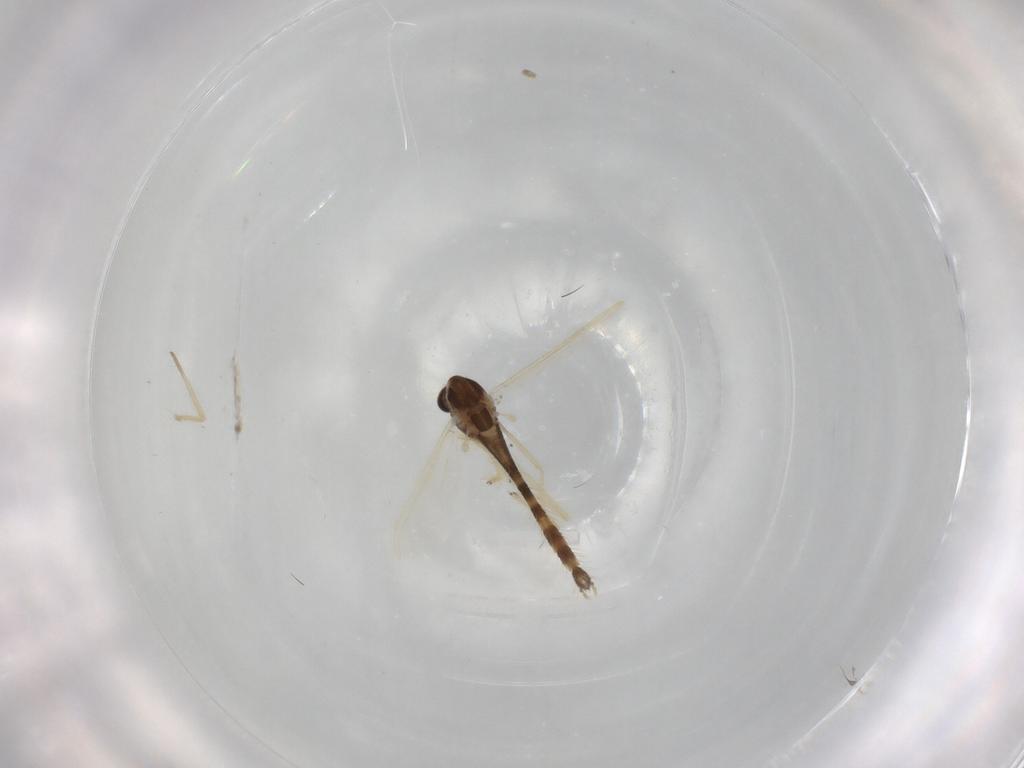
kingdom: Animalia
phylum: Arthropoda
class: Insecta
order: Diptera
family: Chironomidae
